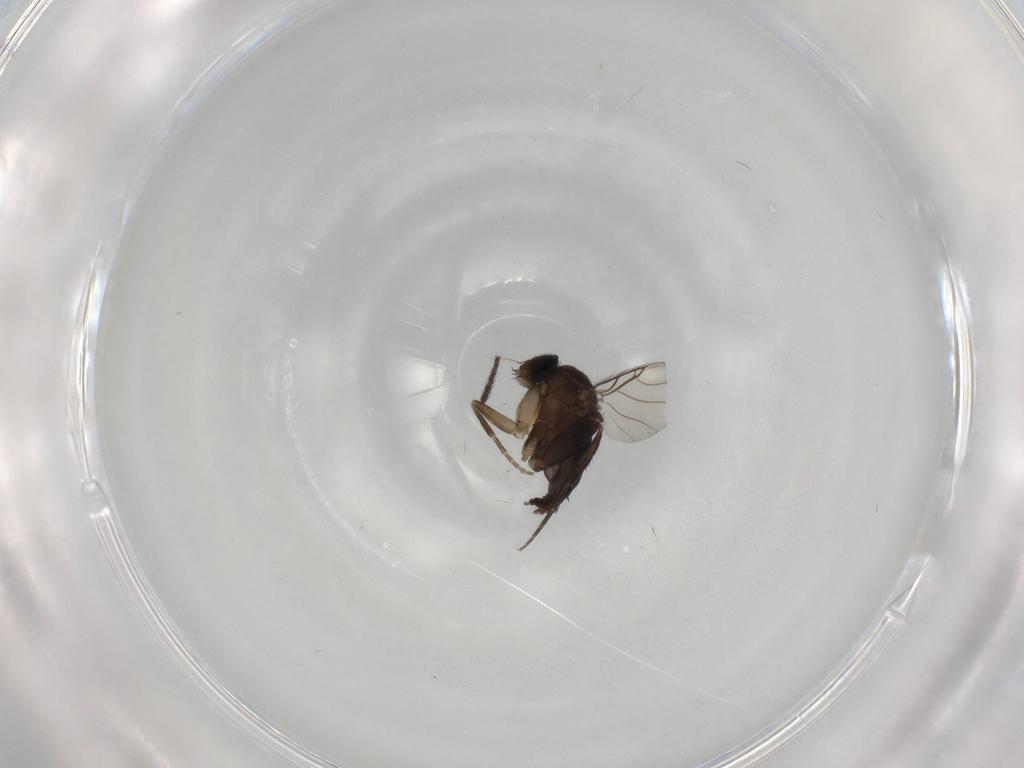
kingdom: Animalia
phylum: Arthropoda
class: Insecta
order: Diptera
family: Phoridae
